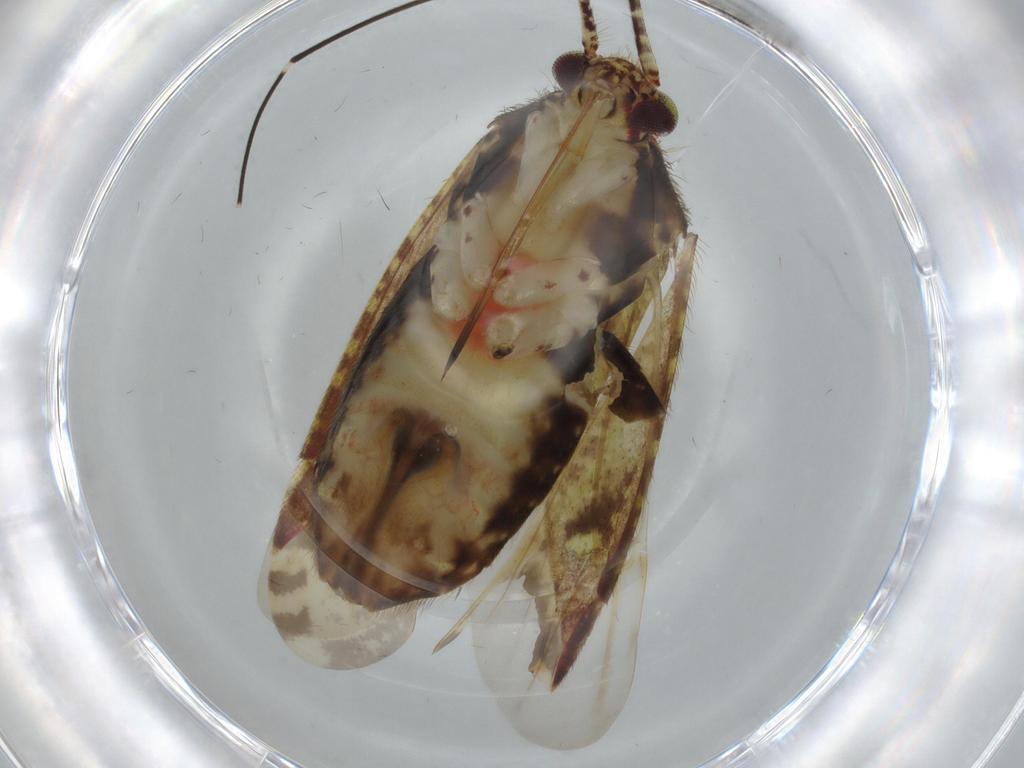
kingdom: Animalia
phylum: Arthropoda
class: Insecta
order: Hemiptera
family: Miridae
